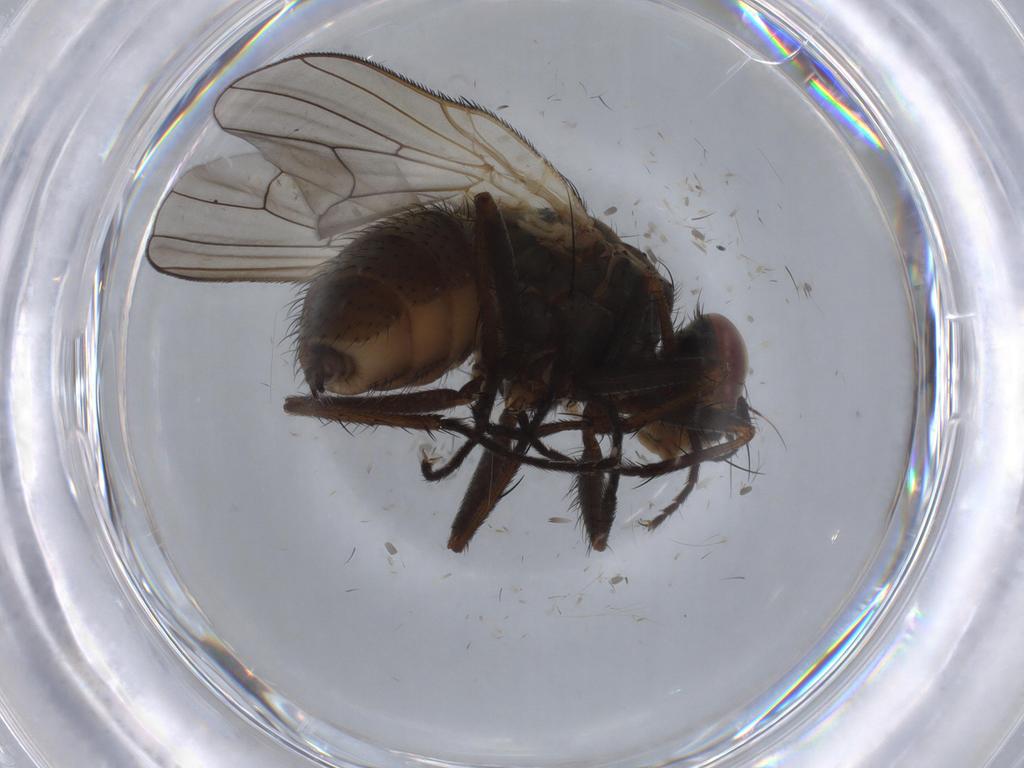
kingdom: Animalia
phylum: Arthropoda
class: Insecta
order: Diptera
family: Anthomyiidae
